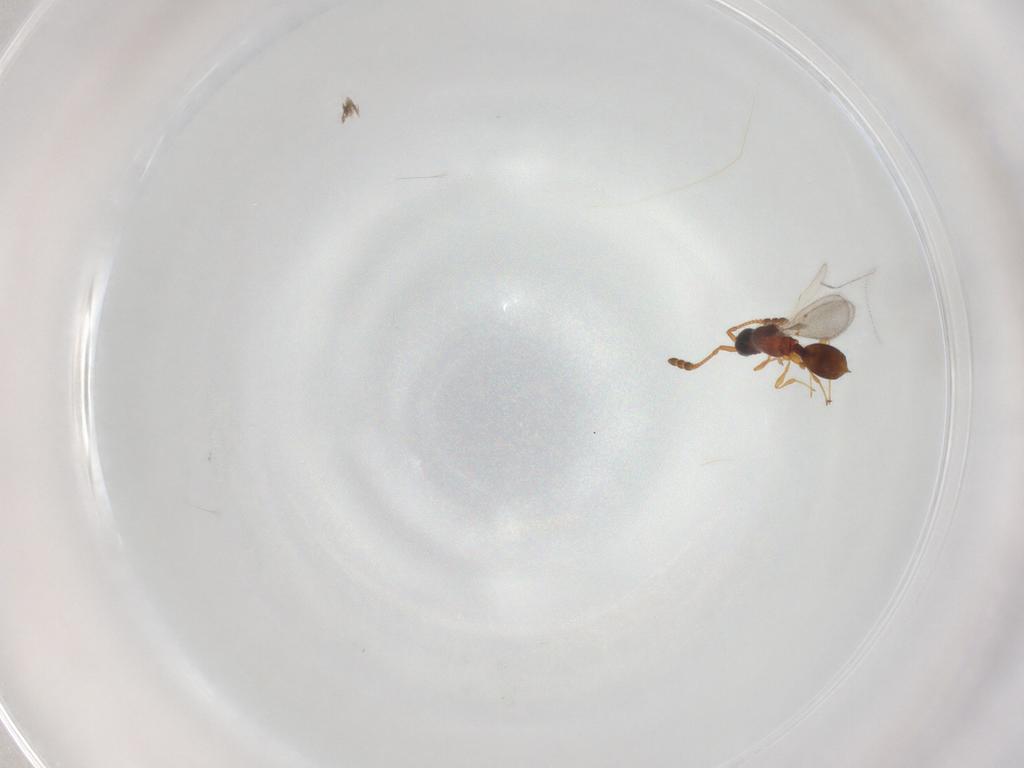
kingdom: Animalia
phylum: Arthropoda
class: Insecta
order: Hymenoptera
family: Diapriidae
